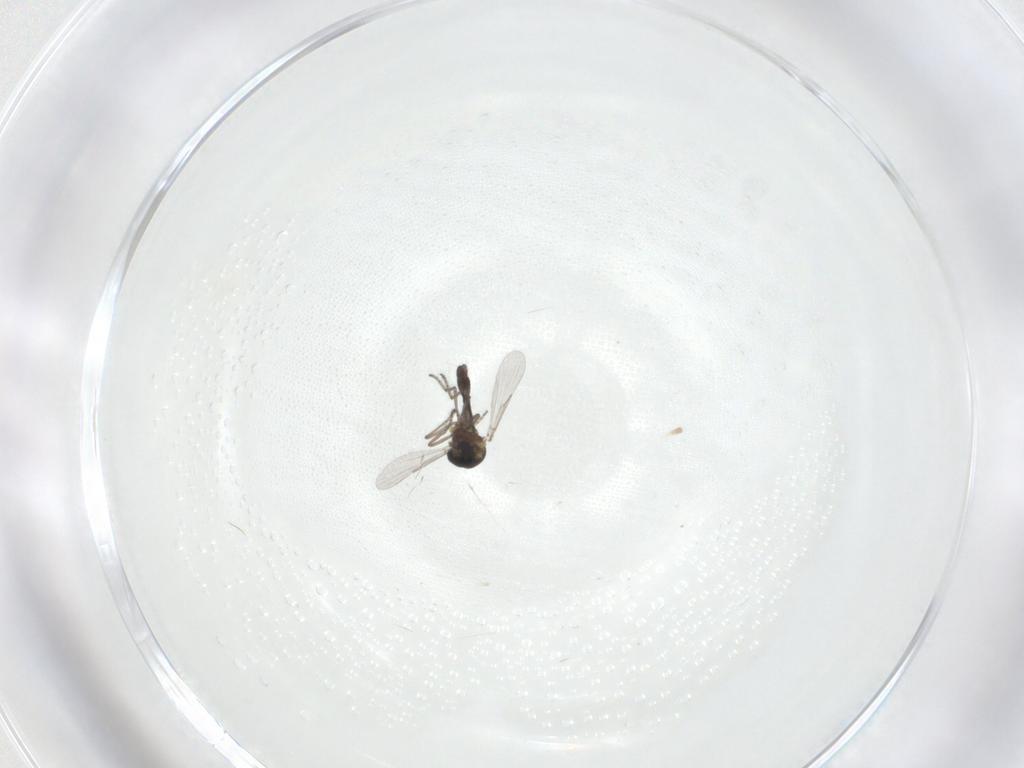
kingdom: Animalia
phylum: Arthropoda
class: Insecta
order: Diptera
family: Ceratopogonidae
